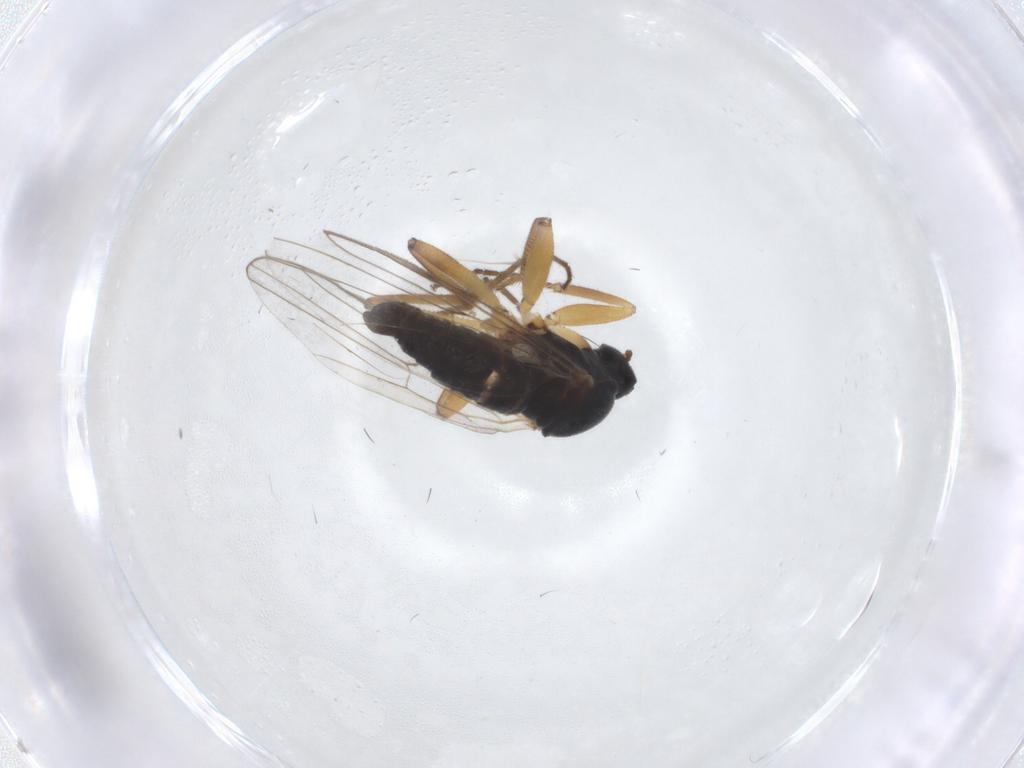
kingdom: Animalia
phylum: Arthropoda
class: Insecta
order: Diptera
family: Hybotidae
